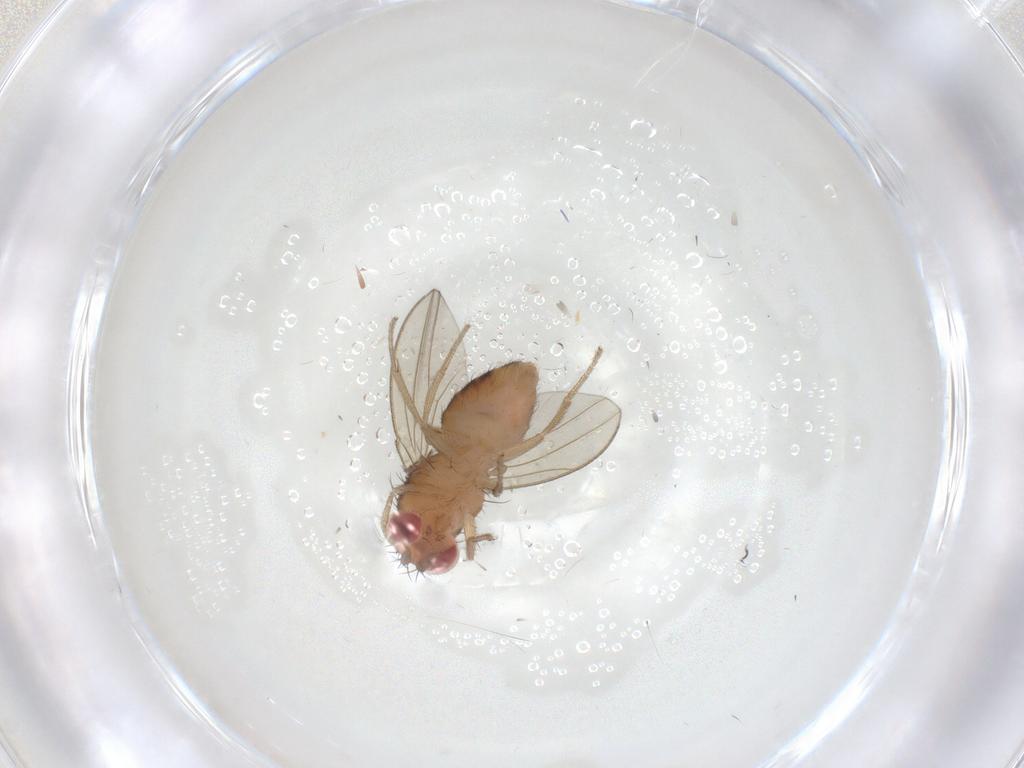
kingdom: Animalia
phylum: Arthropoda
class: Insecta
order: Diptera
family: Drosophilidae
